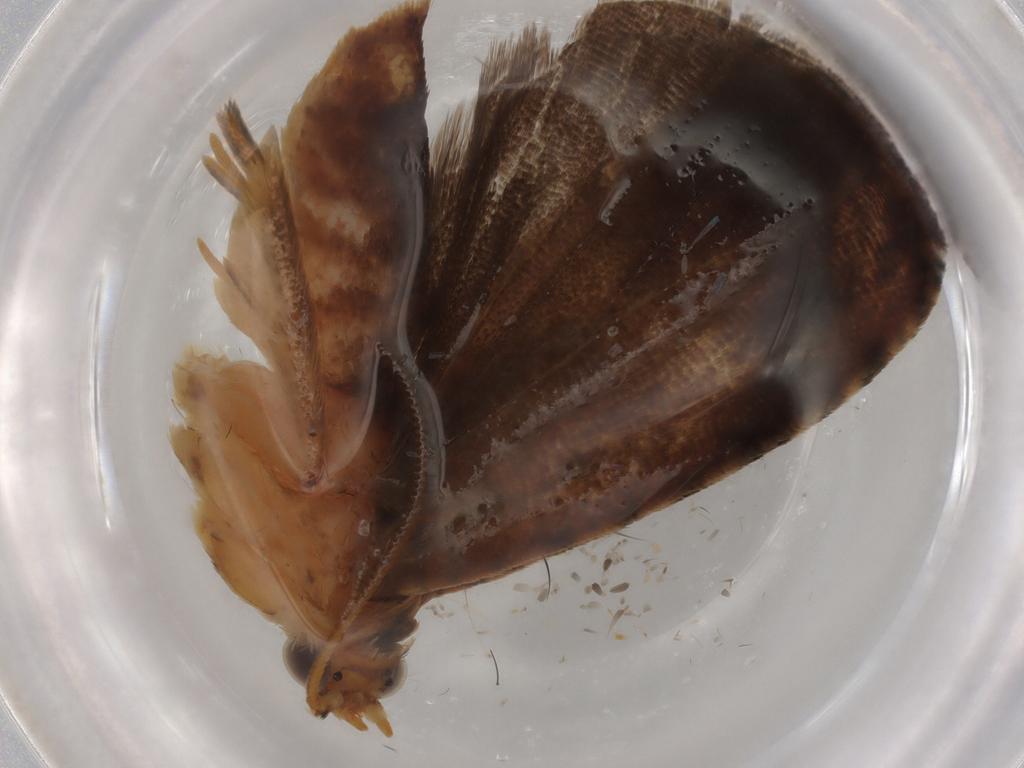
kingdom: Animalia
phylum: Arthropoda
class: Insecta
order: Lepidoptera
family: Tortricidae
